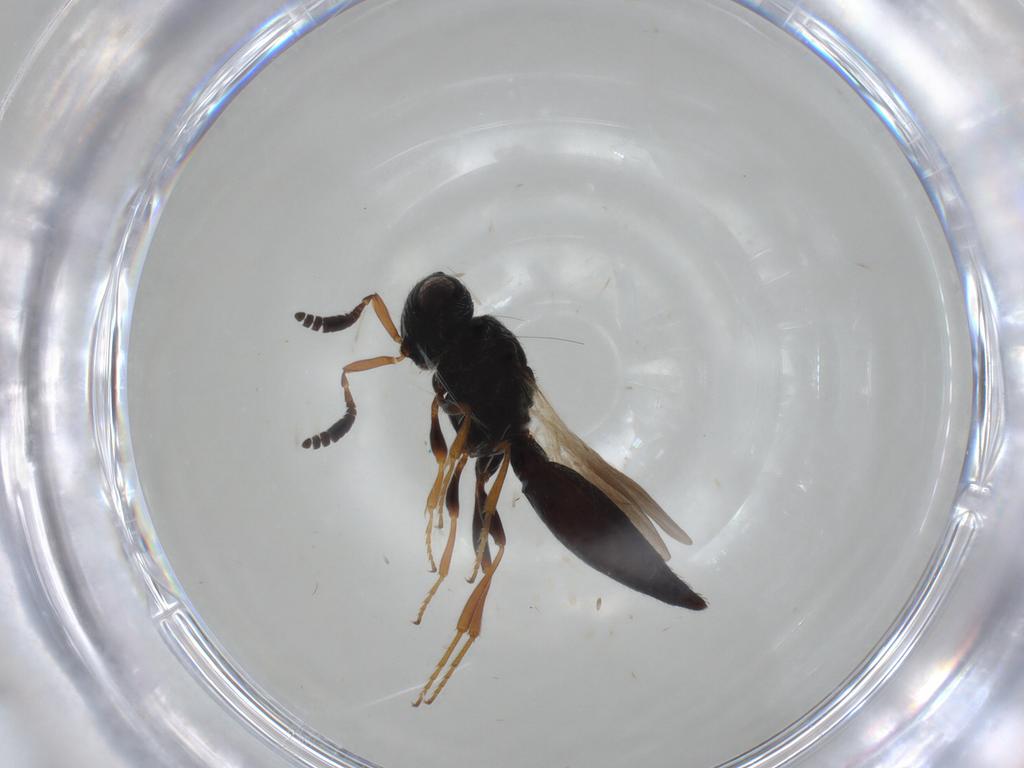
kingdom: Animalia
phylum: Arthropoda
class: Insecta
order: Hymenoptera
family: Scelionidae
